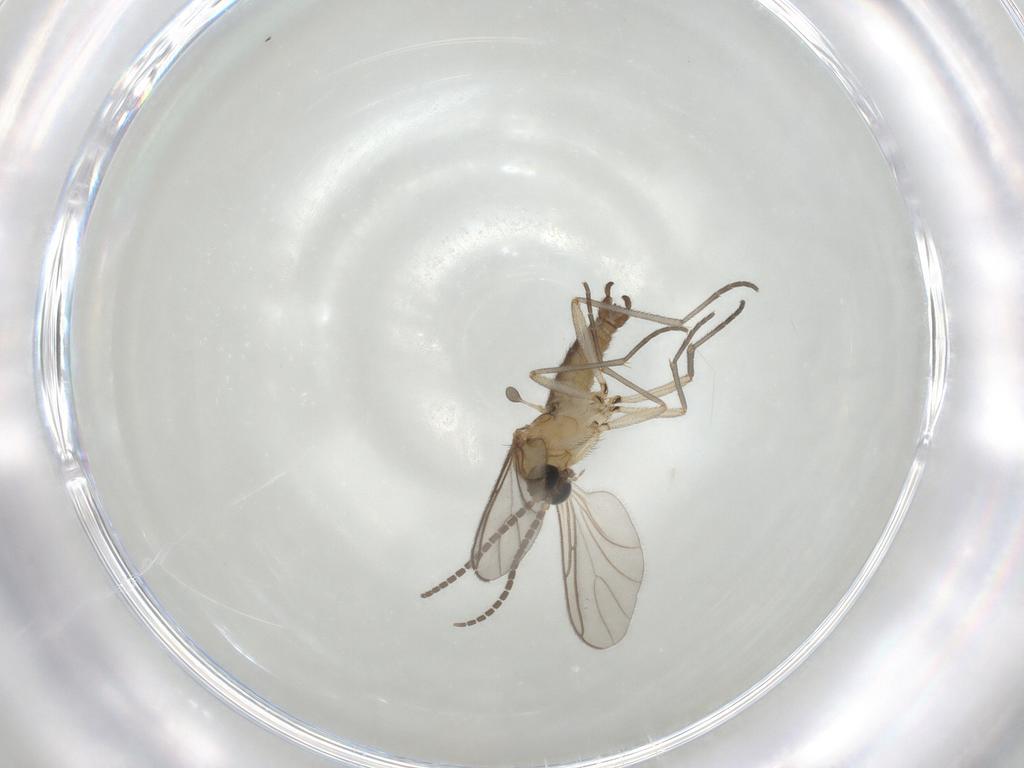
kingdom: Animalia
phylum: Arthropoda
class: Insecta
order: Diptera
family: Sciaridae
